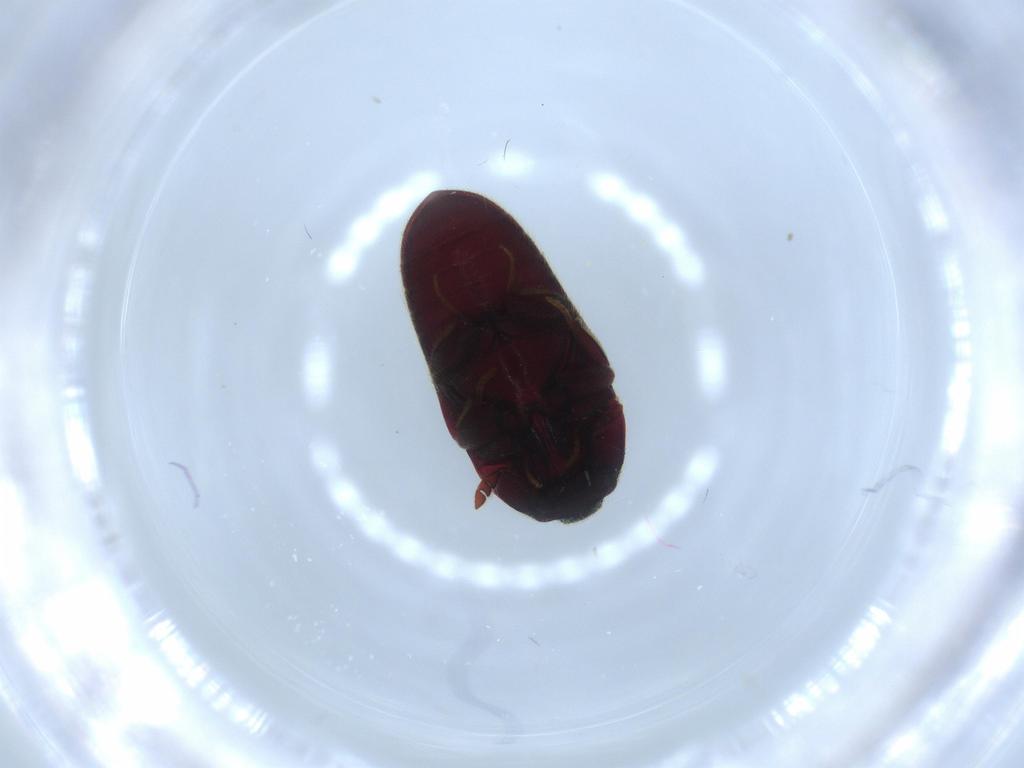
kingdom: Animalia
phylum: Arthropoda
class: Insecta
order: Coleoptera
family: Throscidae
